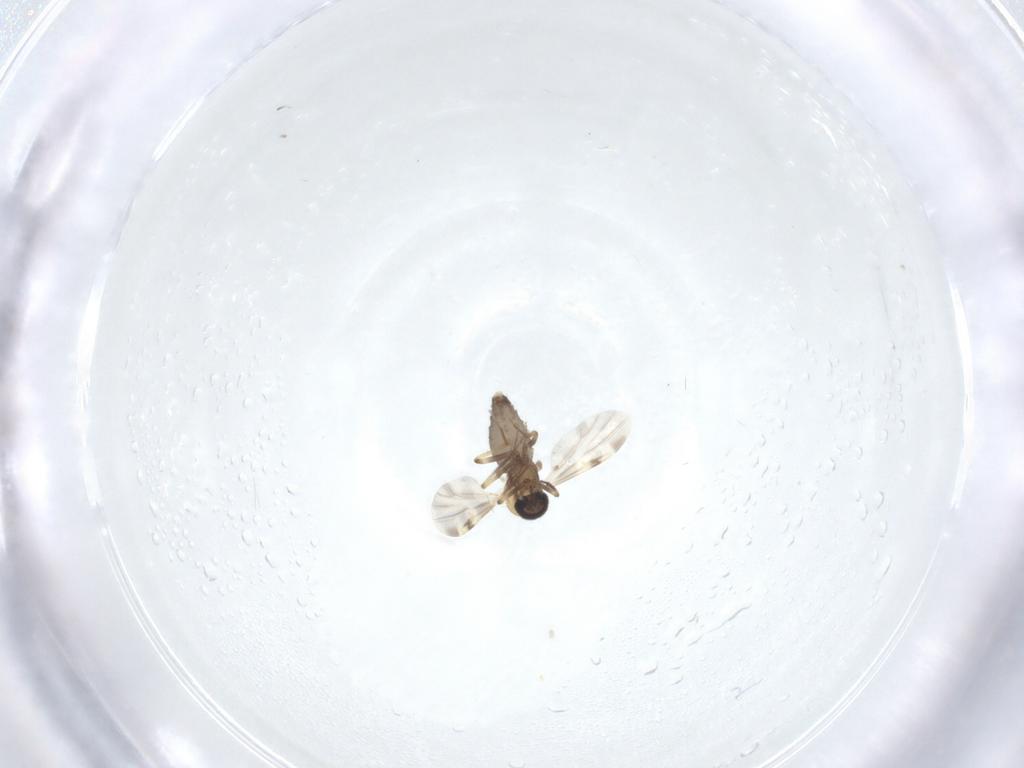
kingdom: Animalia
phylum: Arthropoda
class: Insecta
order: Diptera
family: Ceratopogonidae
